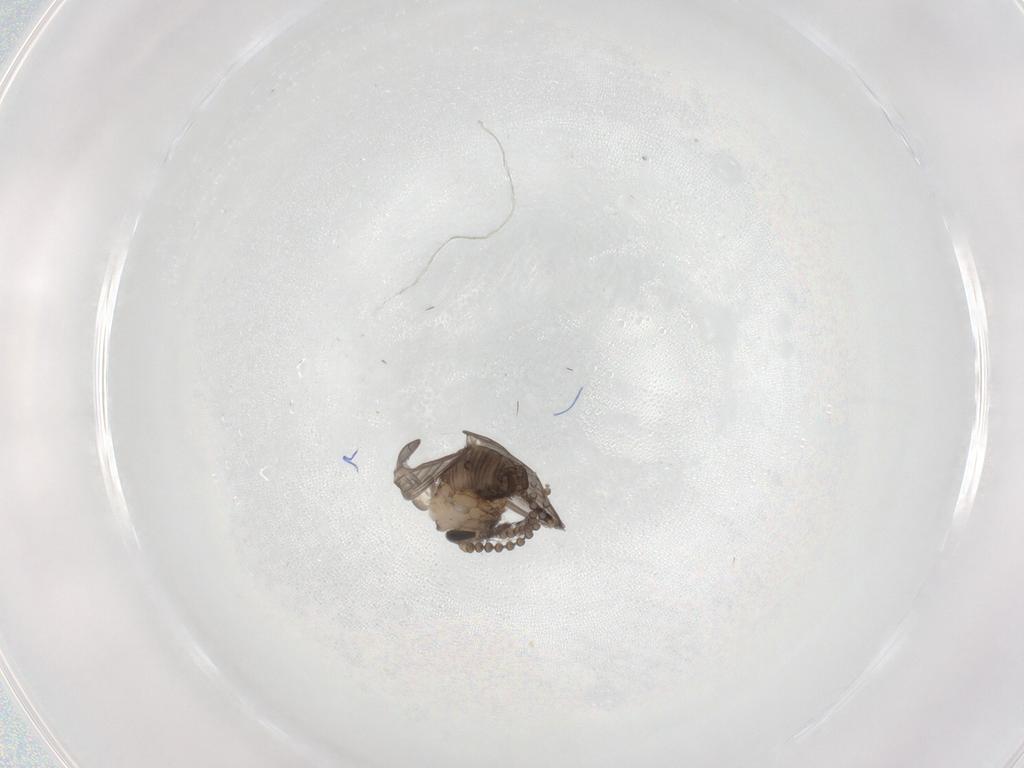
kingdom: Animalia
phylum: Arthropoda
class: Insecta
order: Diptera
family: Psychodidae
